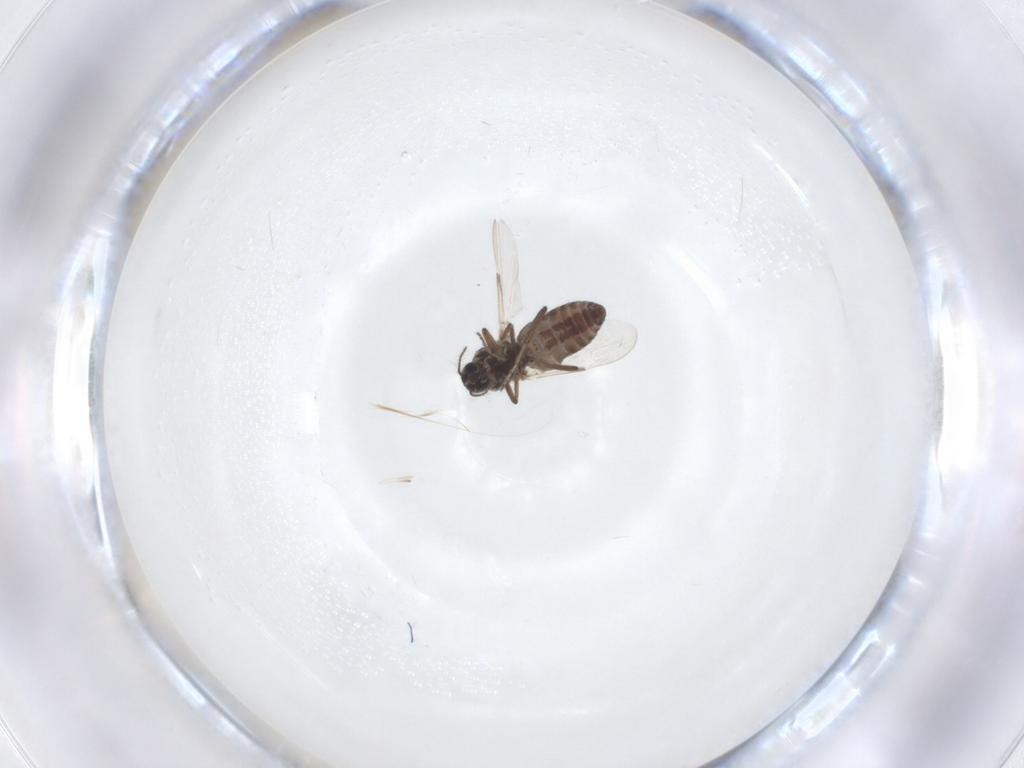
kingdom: Animalia
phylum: Arthropoda
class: Insecta
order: Diptera
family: Ceratopogonidae
